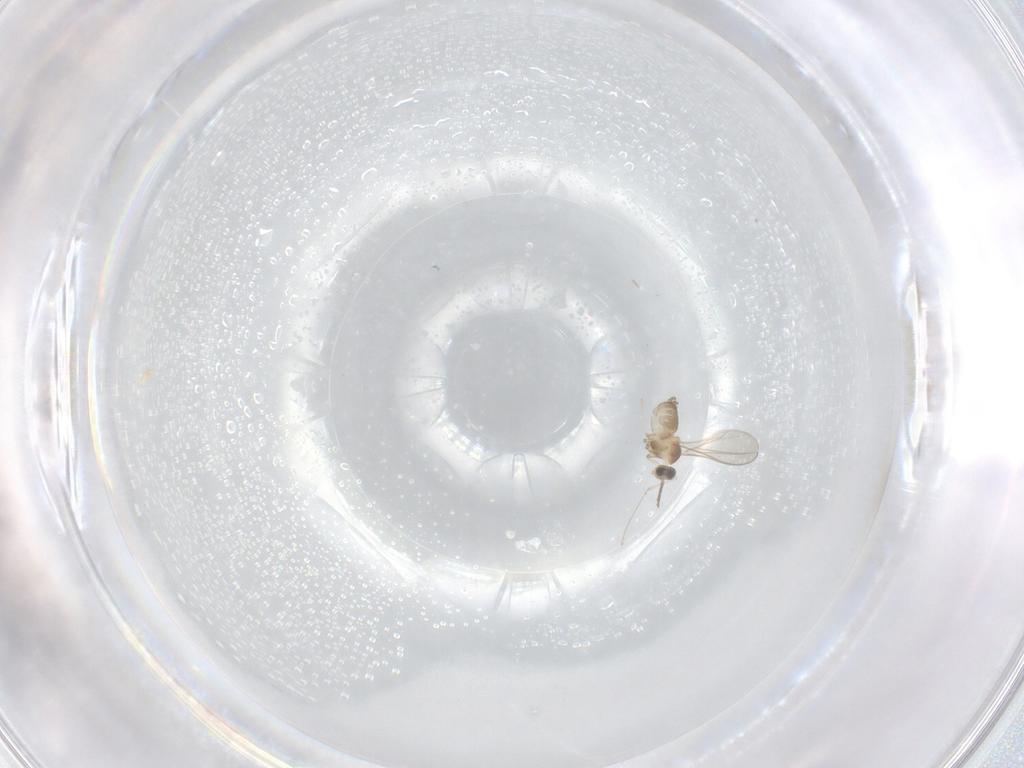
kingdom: Animalia
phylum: Arthropoda
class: Insecta
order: Diptera
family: Cecidomyiidae
